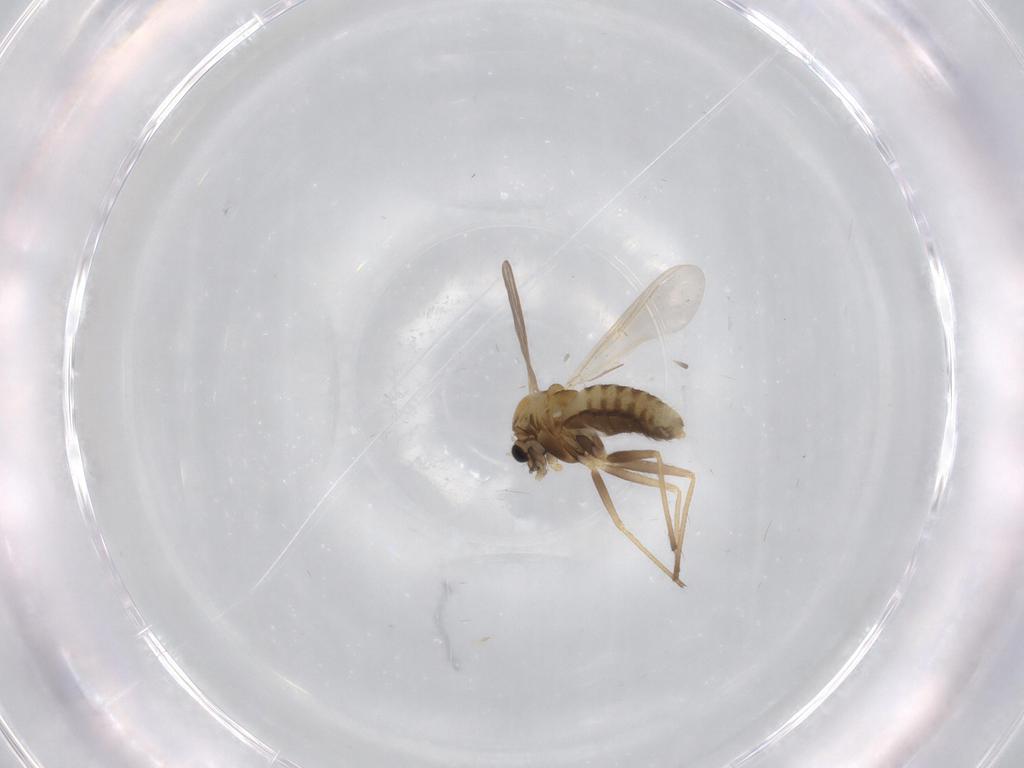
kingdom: Animalia
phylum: Arthropoda
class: Insecta
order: Diptera
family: Chironomidae
